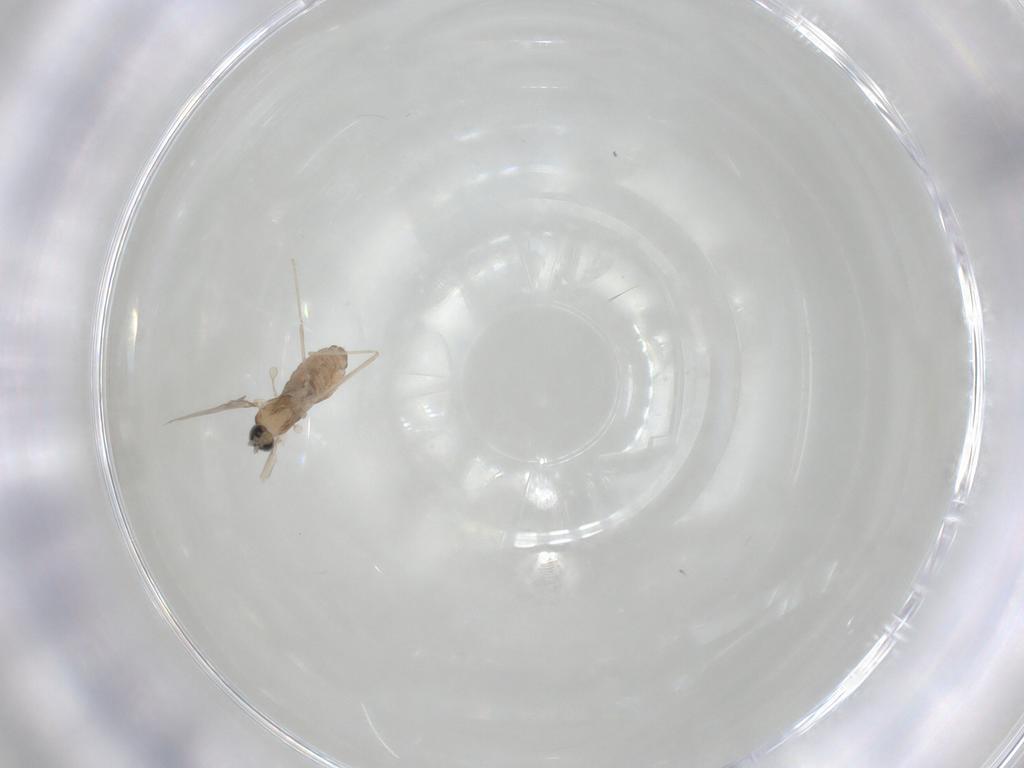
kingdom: Animalia
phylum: Arthropoda
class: Insecta
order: Diptera
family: Cecidomyiidae
